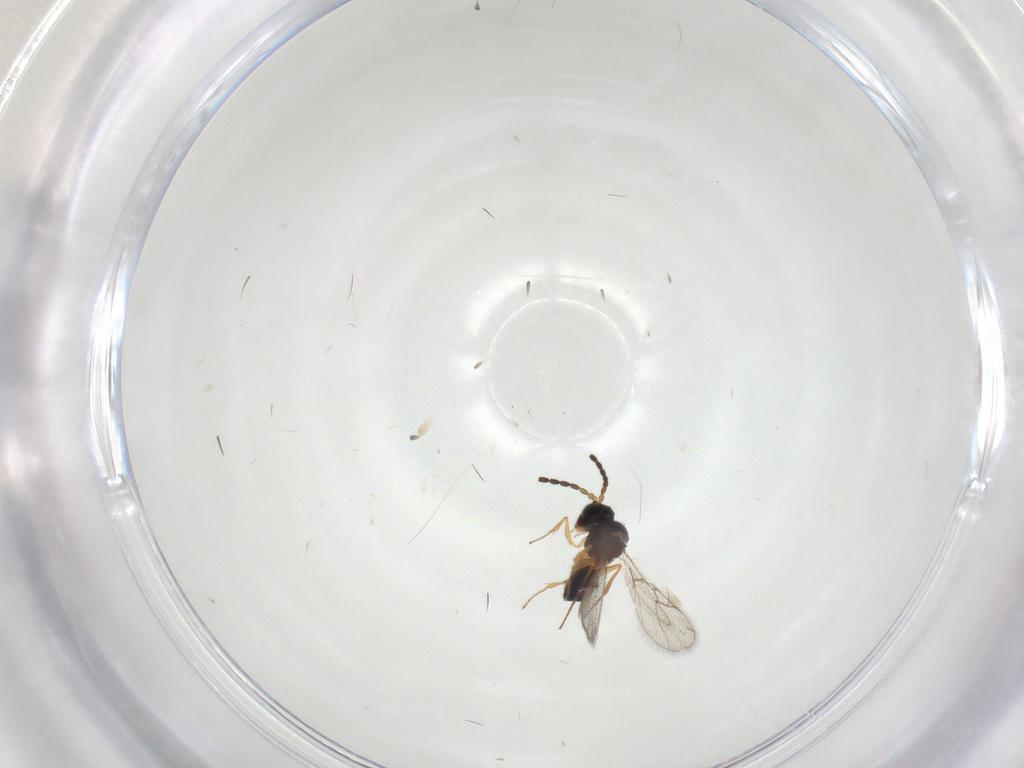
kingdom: Animalia
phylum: Arthropoda
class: Insecta
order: Hymenoptera
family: Figitidae
